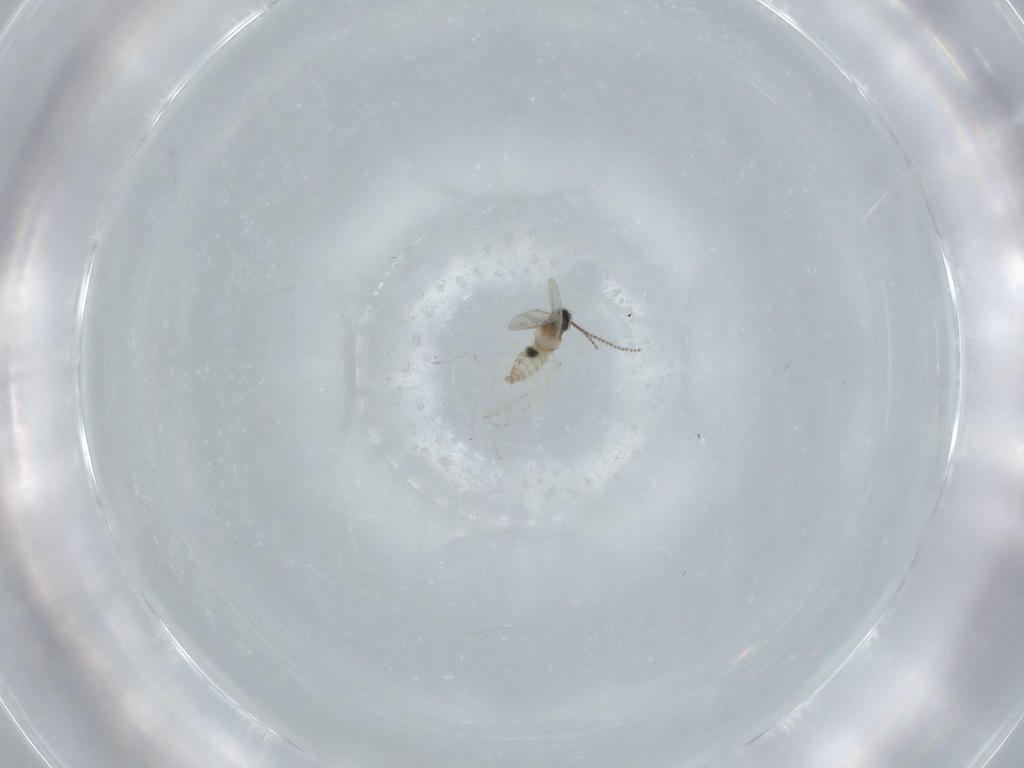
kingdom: Animalia
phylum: Arthropoda
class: Insecta
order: Diptera
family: Cecidomyiidae
